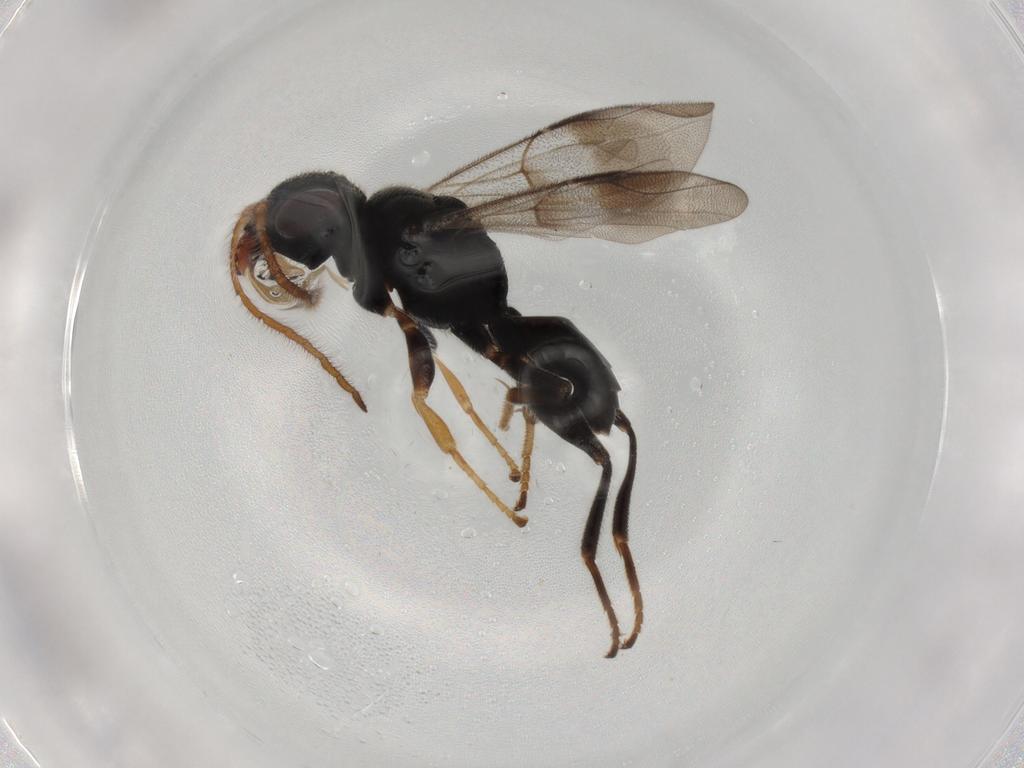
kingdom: Animalia
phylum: Arthropoda
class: Insecta
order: Hymenoptera
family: Dryinidae
